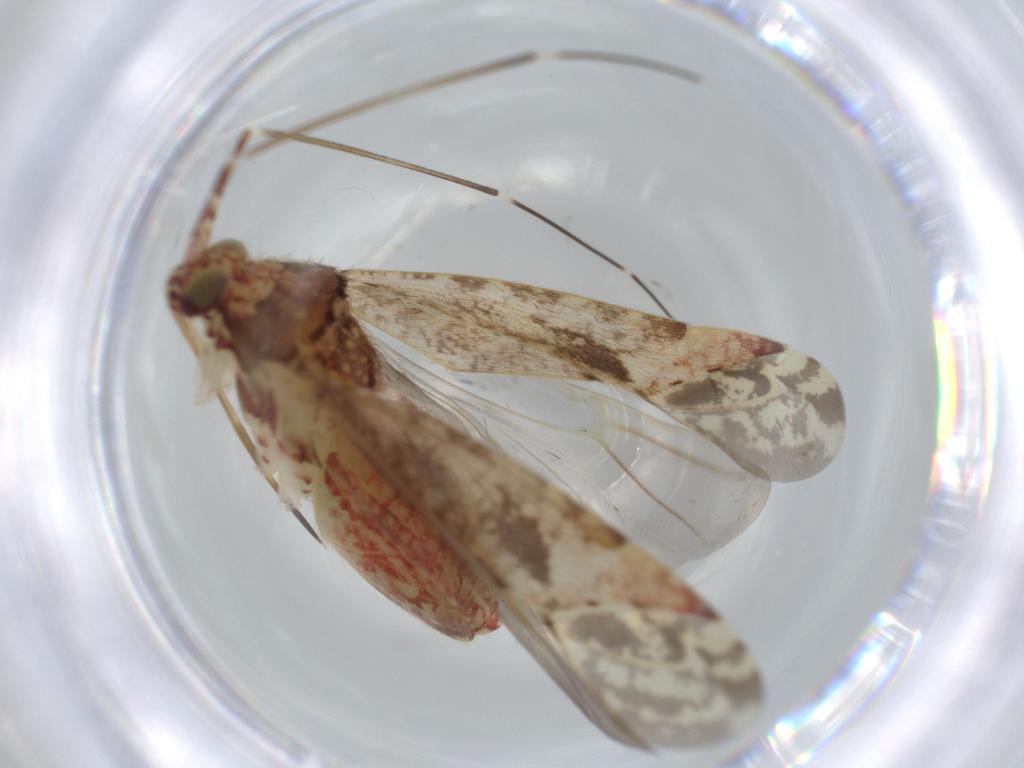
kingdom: Animalia
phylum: Arthropoda
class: Insecta
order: Hemiptera
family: Miridae
